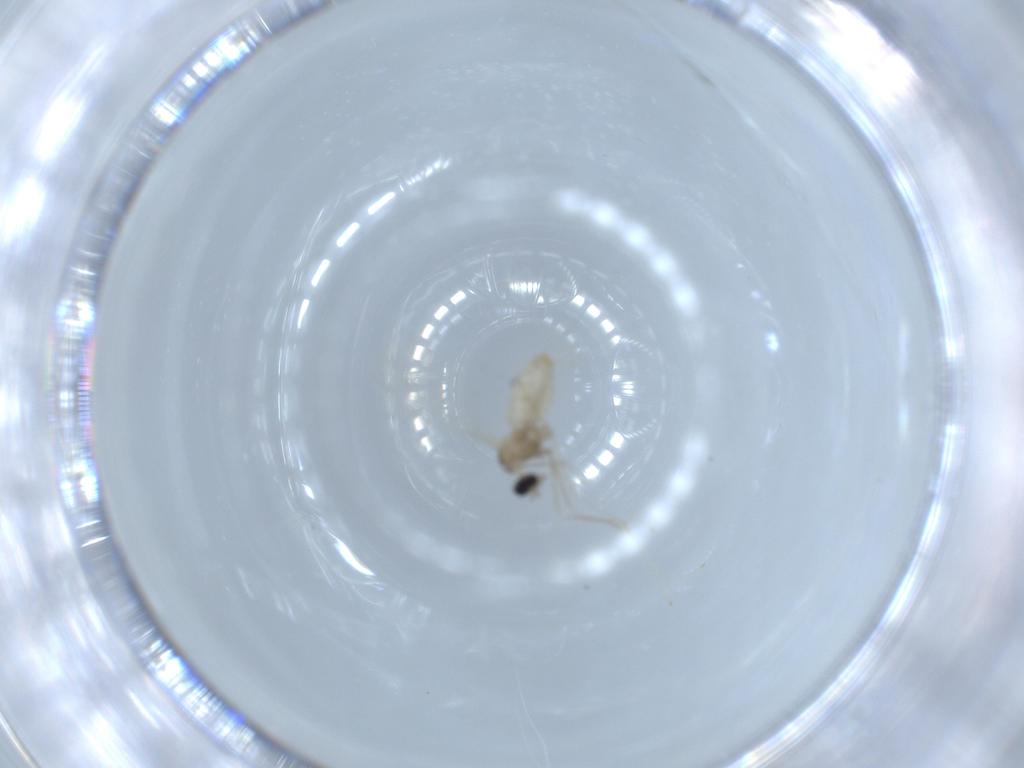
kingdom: Animalia
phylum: Arthropoda
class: Insecta
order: Diptera
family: Cecidomyiidae
